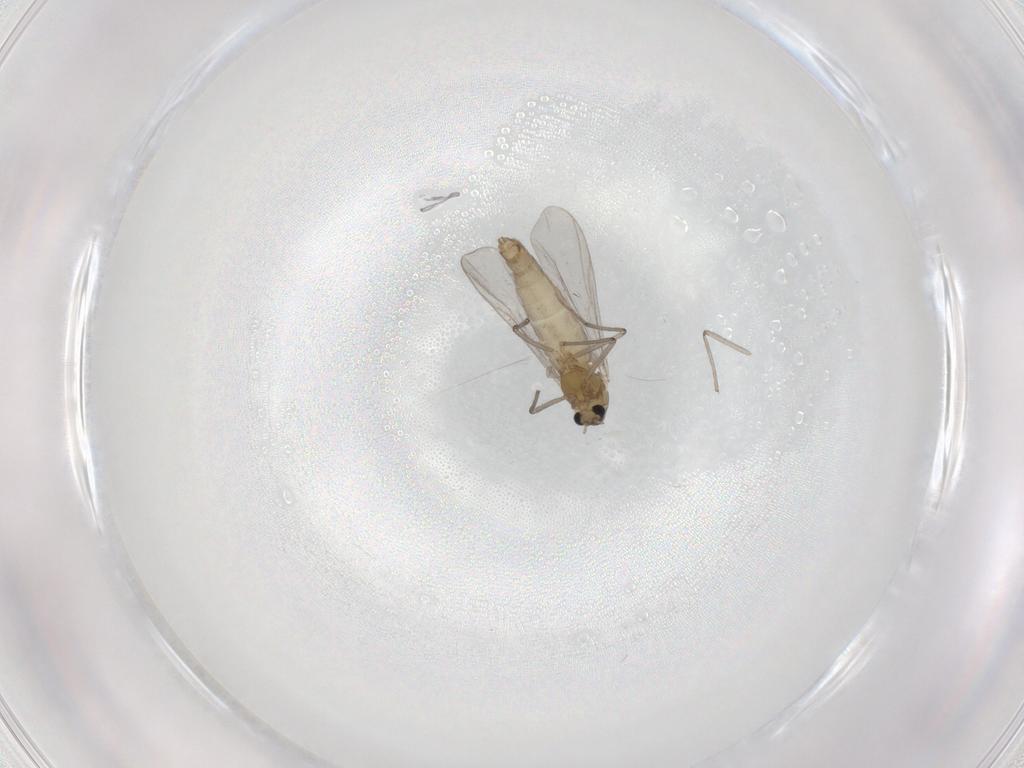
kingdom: Animalia
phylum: Arthropoda
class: Insecta
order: Diptera
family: Chironomidae
